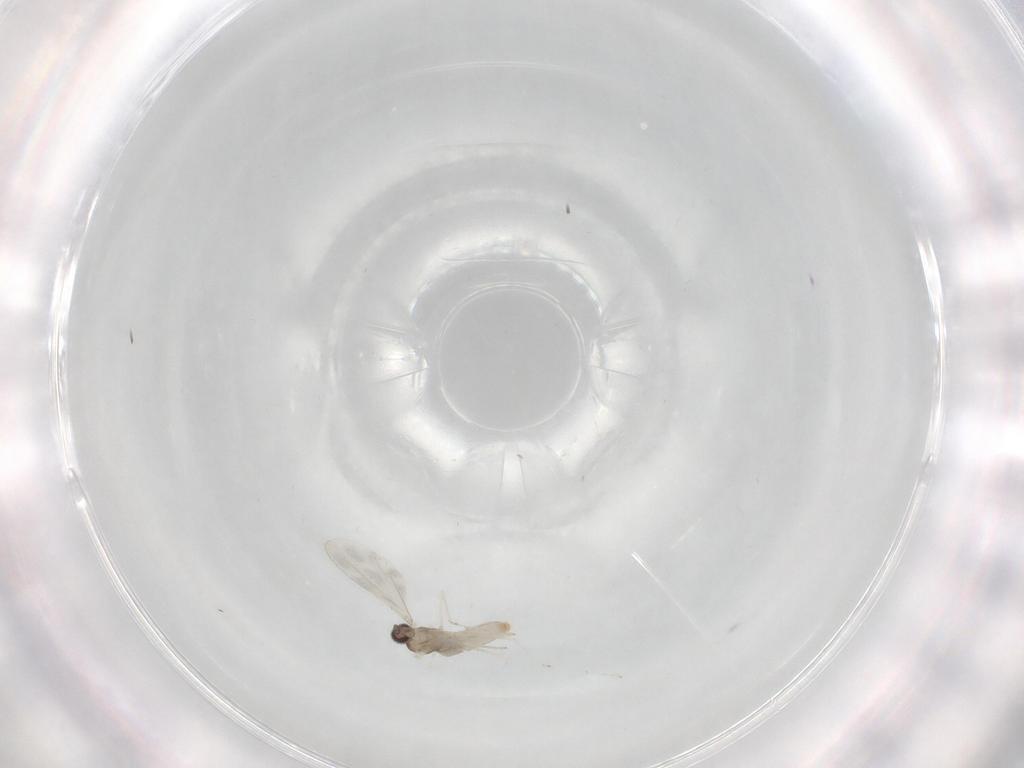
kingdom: Animalia
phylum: Arthropoda
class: Insecta
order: Diptera
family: Cecidomyiidae
